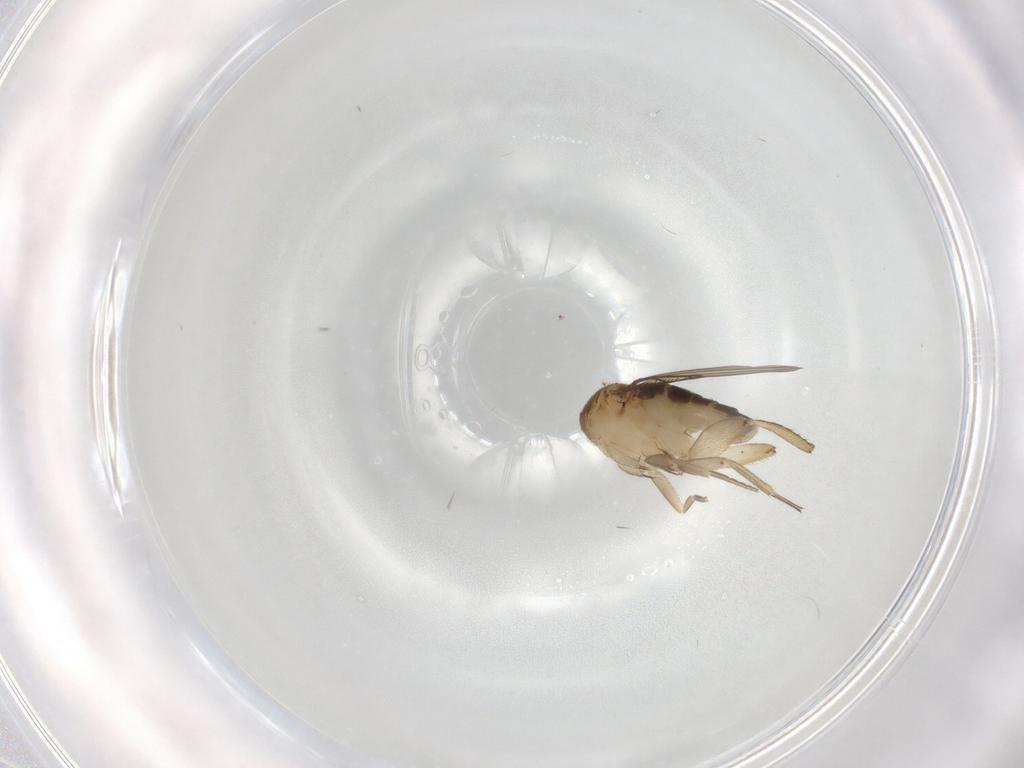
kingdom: Animalia
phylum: Arthropoda
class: Insecta
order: Diptera
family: Phoridae
